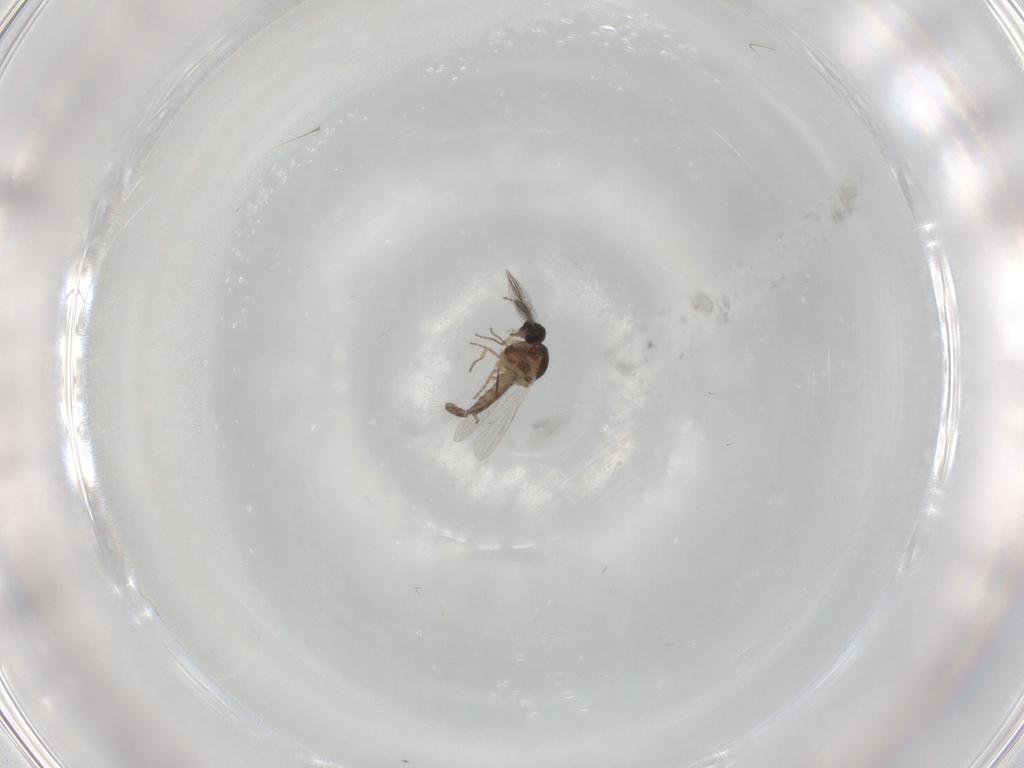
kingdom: Animalia
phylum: Arthropoda
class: Insecta
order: Diptera
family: Ceratopogonidae
